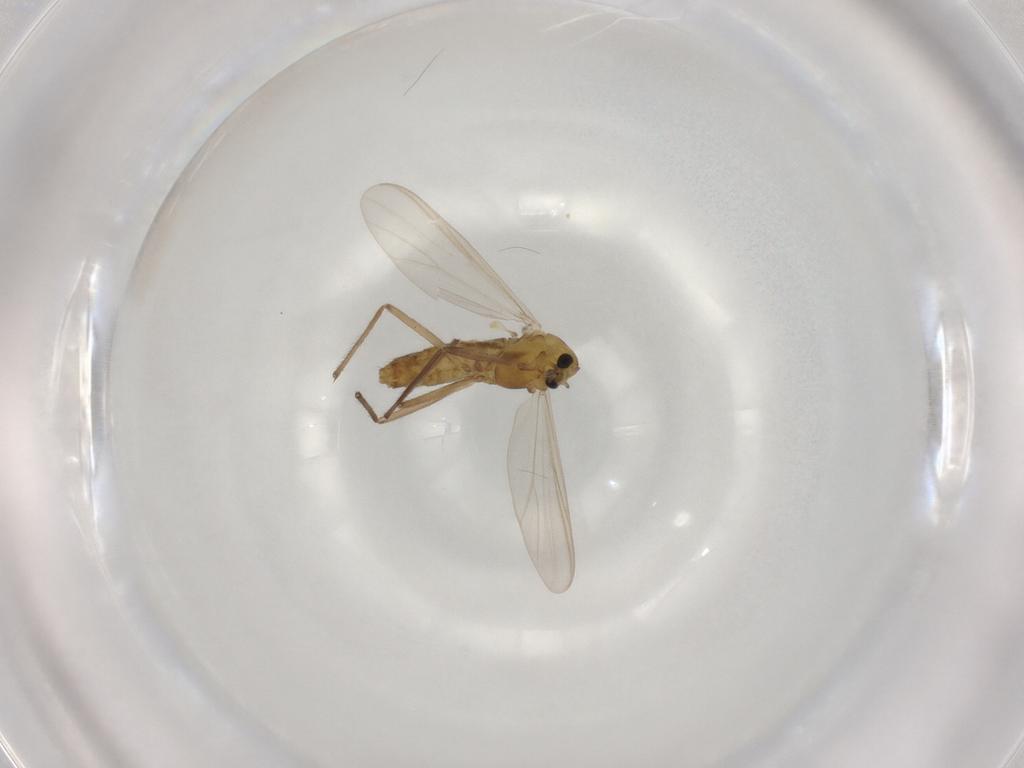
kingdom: Animalia
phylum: Arthropoda
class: Insecta
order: Diptera
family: Chironomidae
